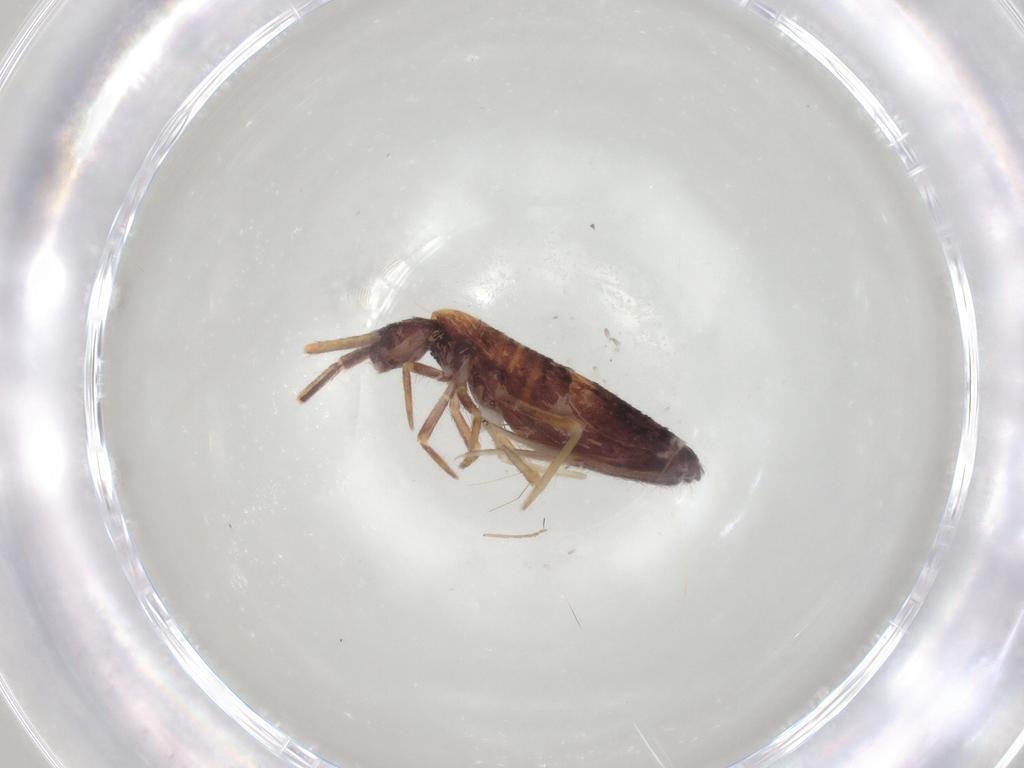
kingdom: Animalia
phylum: Arthropoda
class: Collembola
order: Entomobryomorpha
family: Entomobryidae
